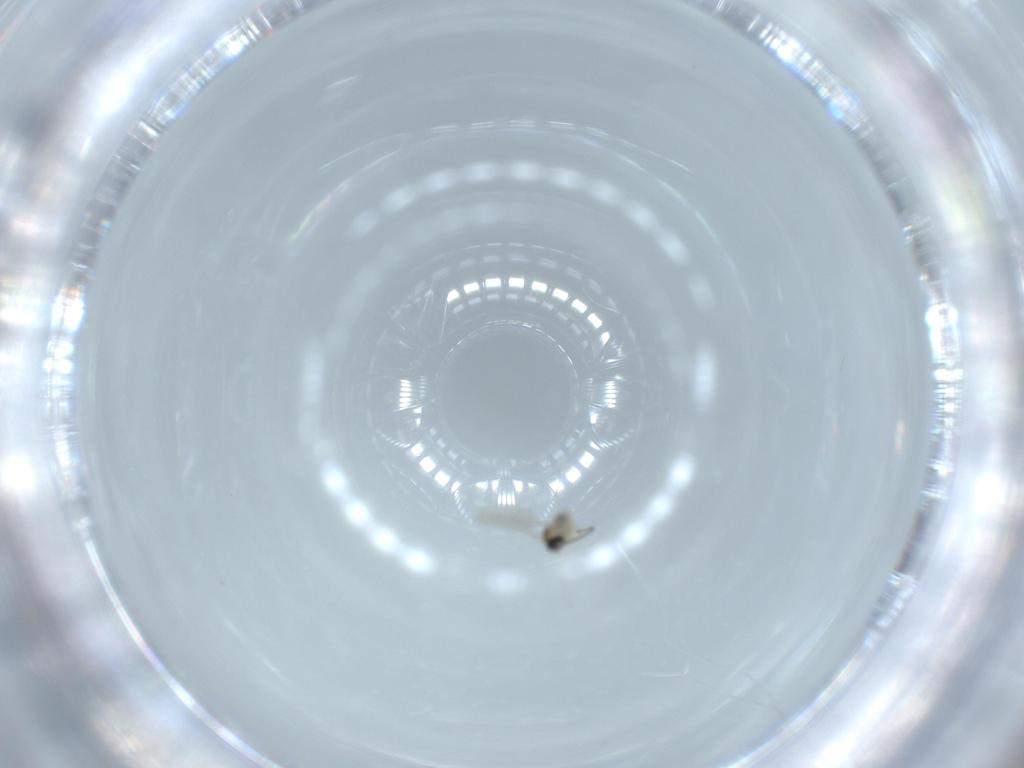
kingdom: Animalia
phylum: Arthropoda
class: Insecta
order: Diptera
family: Cecidomyiidae
